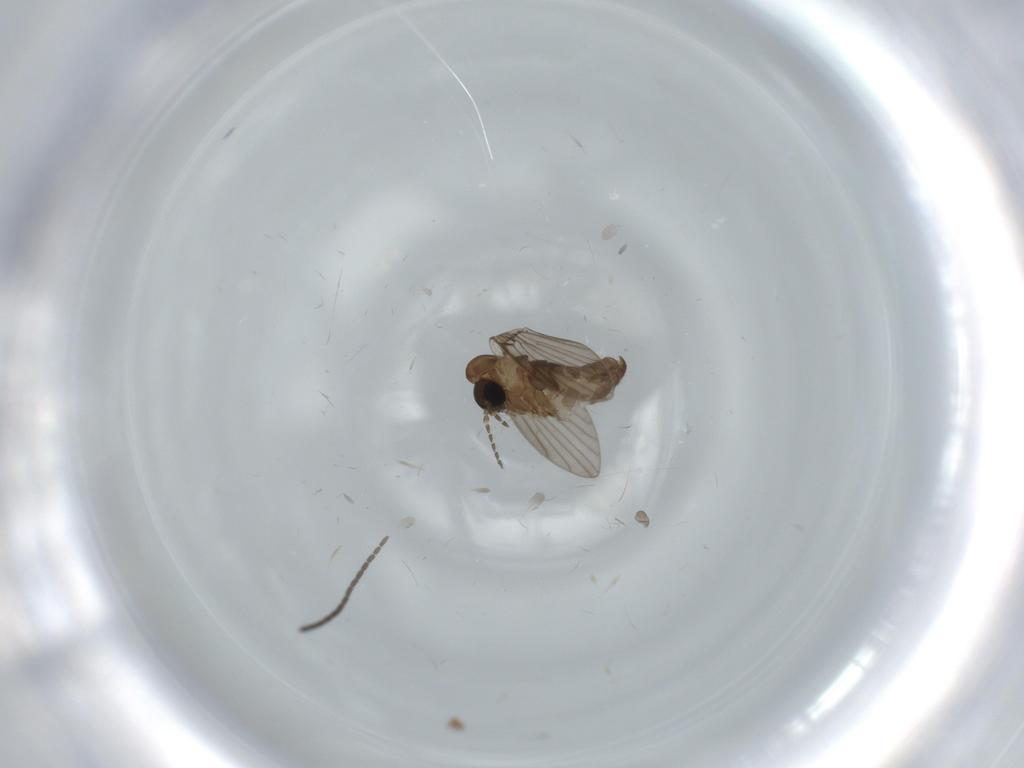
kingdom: Animalia
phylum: Arthropoda
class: Insecta
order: Diptera
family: Psychodidae
